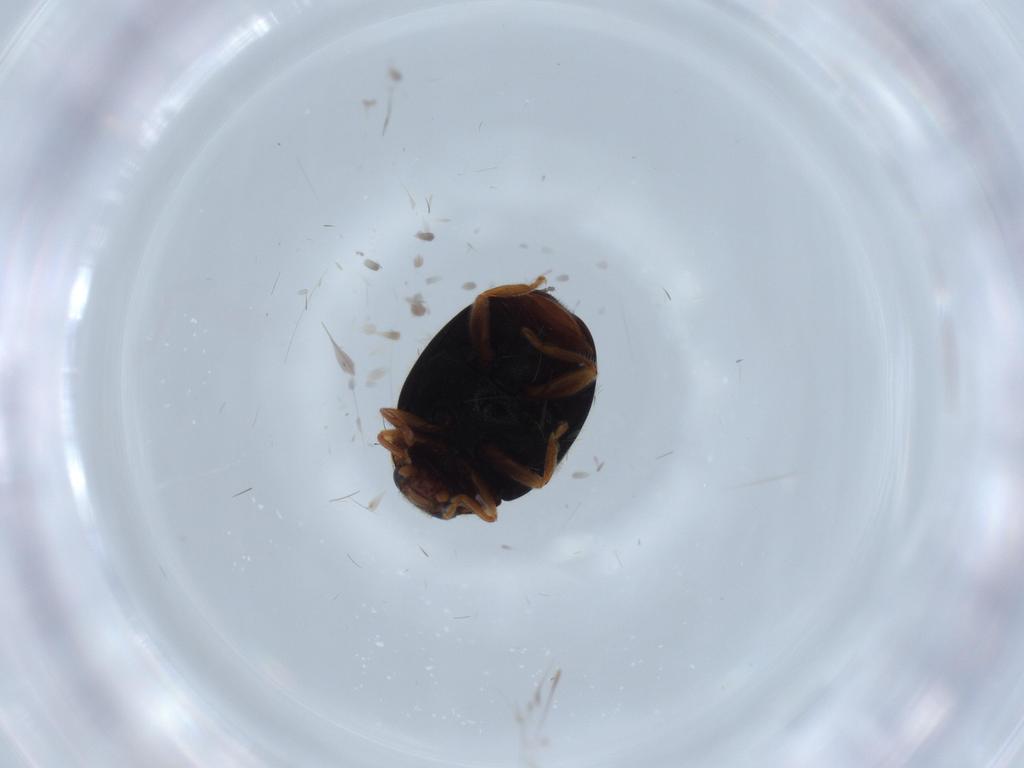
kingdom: Animalia
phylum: Arthropoda
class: Insecta
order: Coleoptera
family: Coccinellidae
